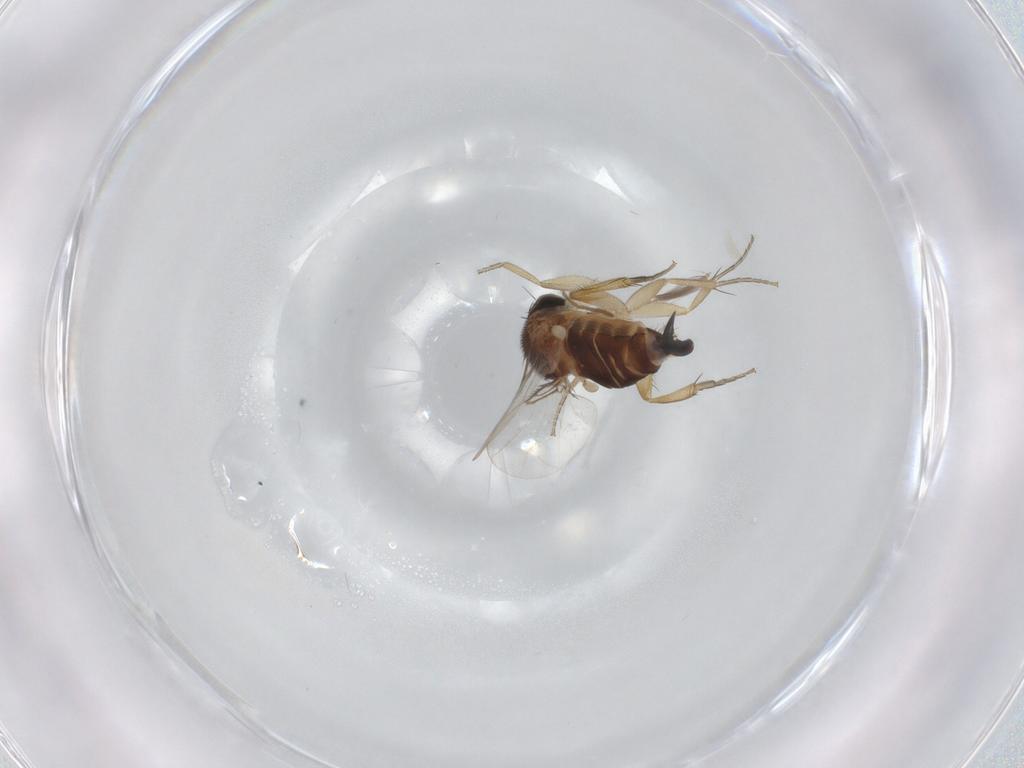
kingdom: Animalia
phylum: Arthropoda
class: Insecta
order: Diptera
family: Phoridae
